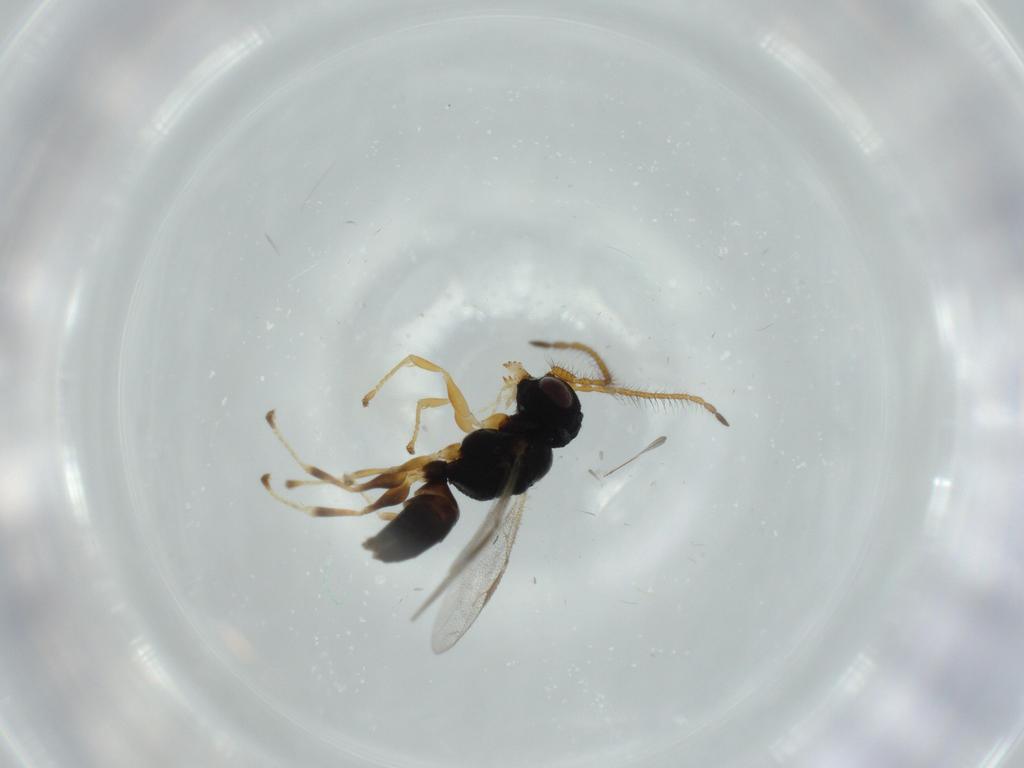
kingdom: Animalia
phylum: Arthropoda
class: Insecta
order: Hymenoptera
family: Dryinidae
